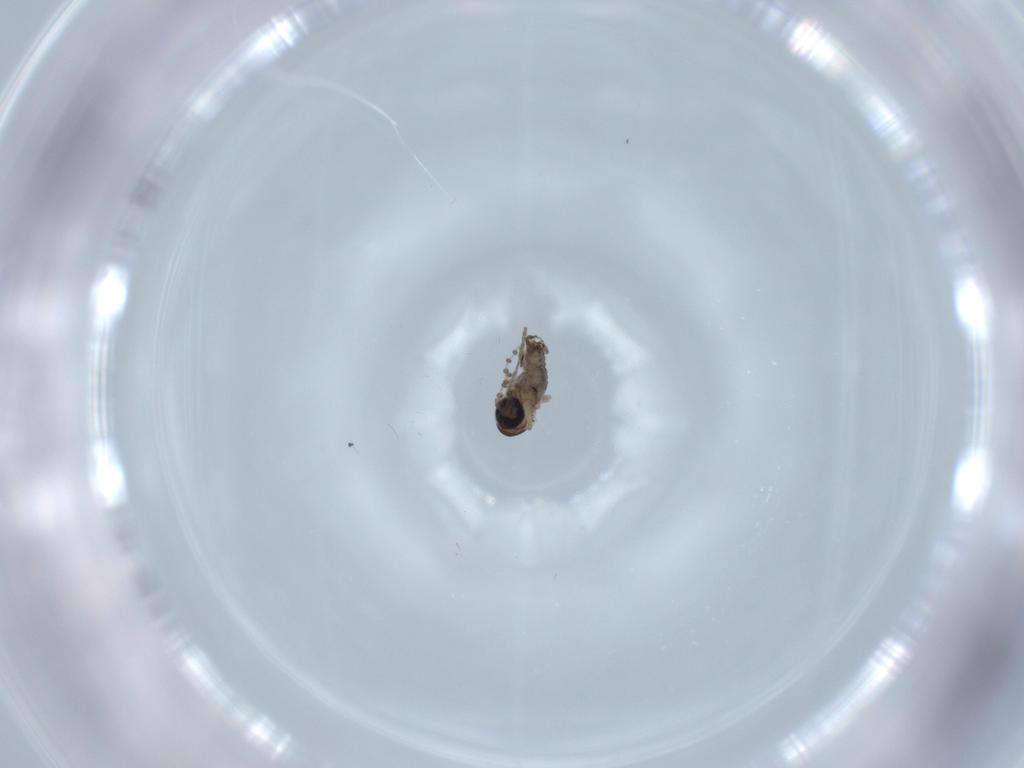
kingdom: Animalia
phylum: Arthropoda
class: Insecta
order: Diptera
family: Psychodidae
